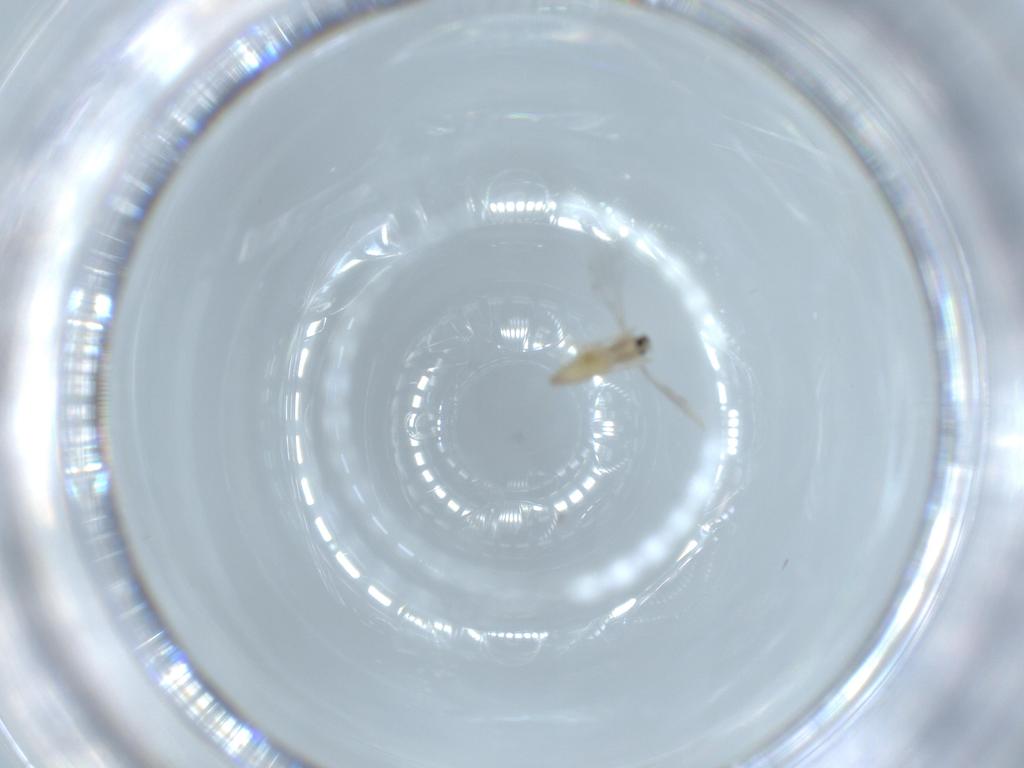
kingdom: Animalia
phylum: Arthropoda
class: Insecta
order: Diptera
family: Cecidomyiidae
